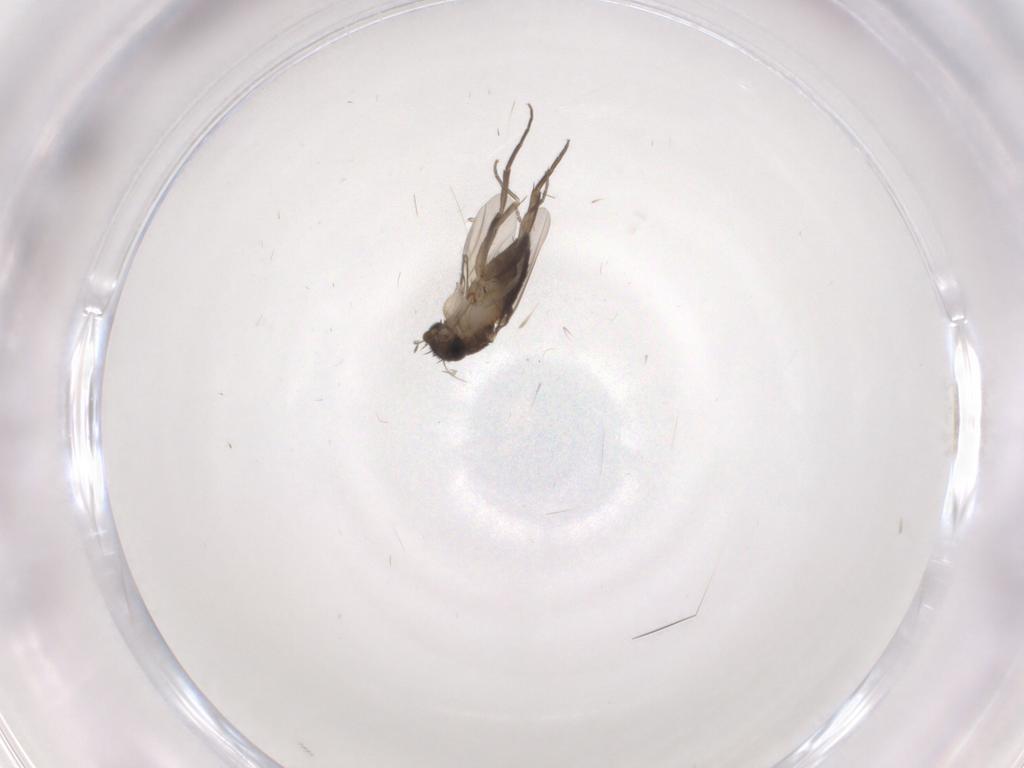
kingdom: Animalia
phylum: Arthropoda
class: Insecta
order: Diptera
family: Phoridae
